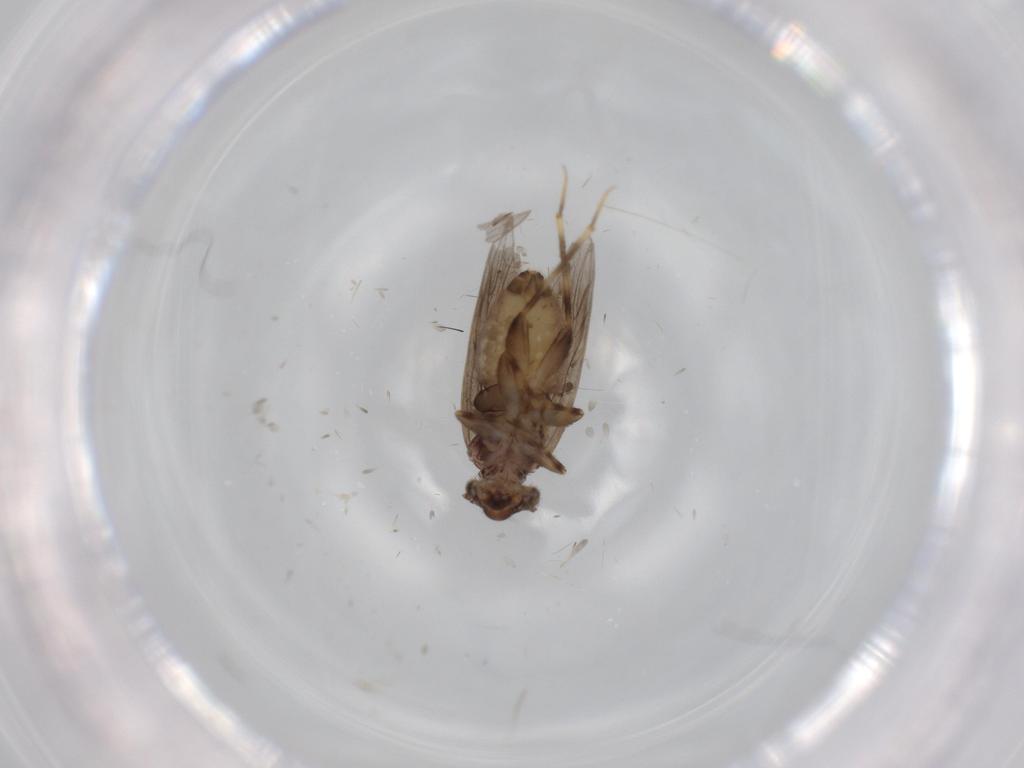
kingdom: Animalia
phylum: Arthropoda
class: Insecta
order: Psocodea
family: Lepidopsocidae
